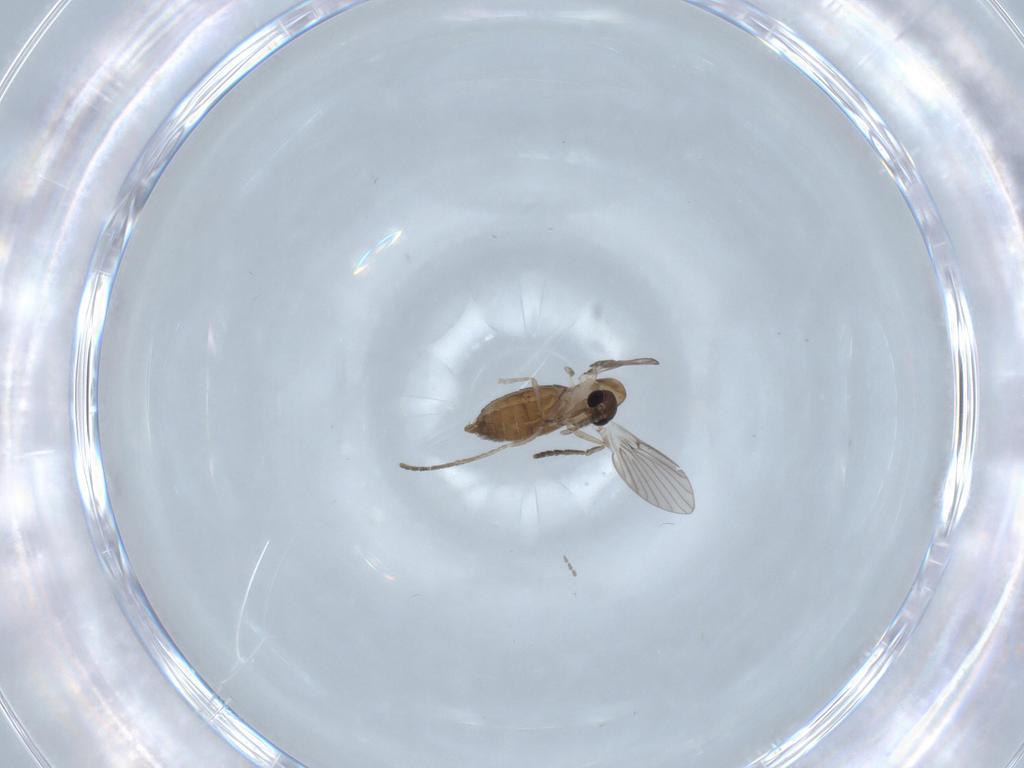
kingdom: Animalia
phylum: Arthropoda
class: Insecta
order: Diptera
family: Psychodidae
